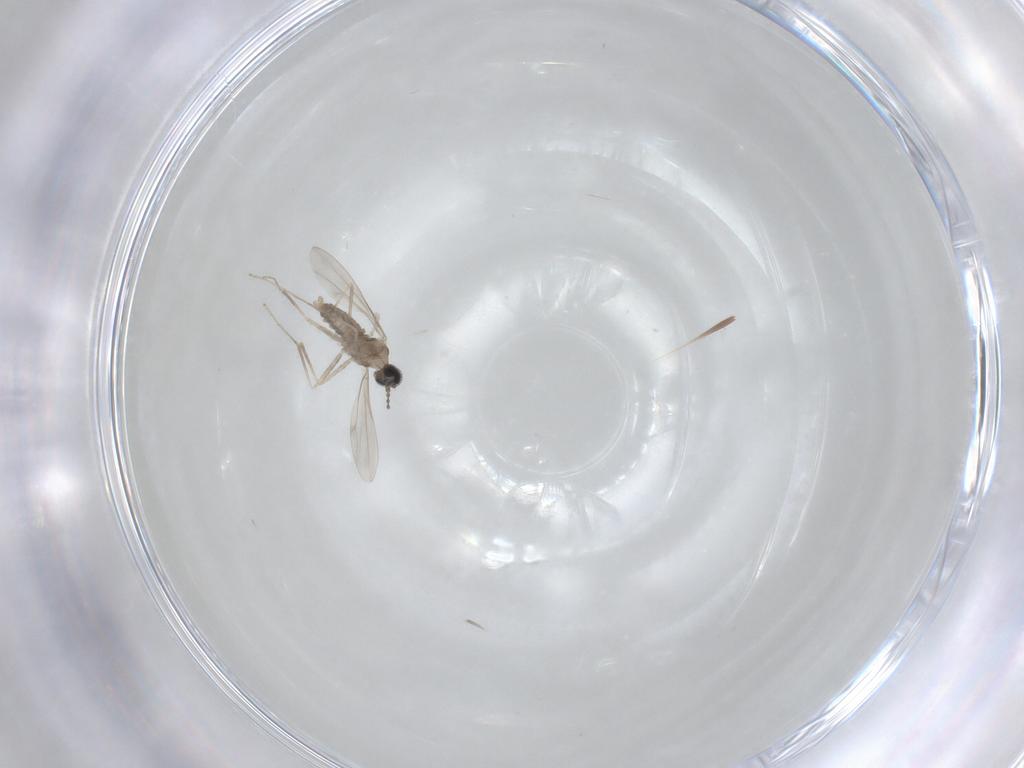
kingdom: Animalia
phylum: Arthropoda
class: Insecta
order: Diptera
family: Cecidomyiidae
